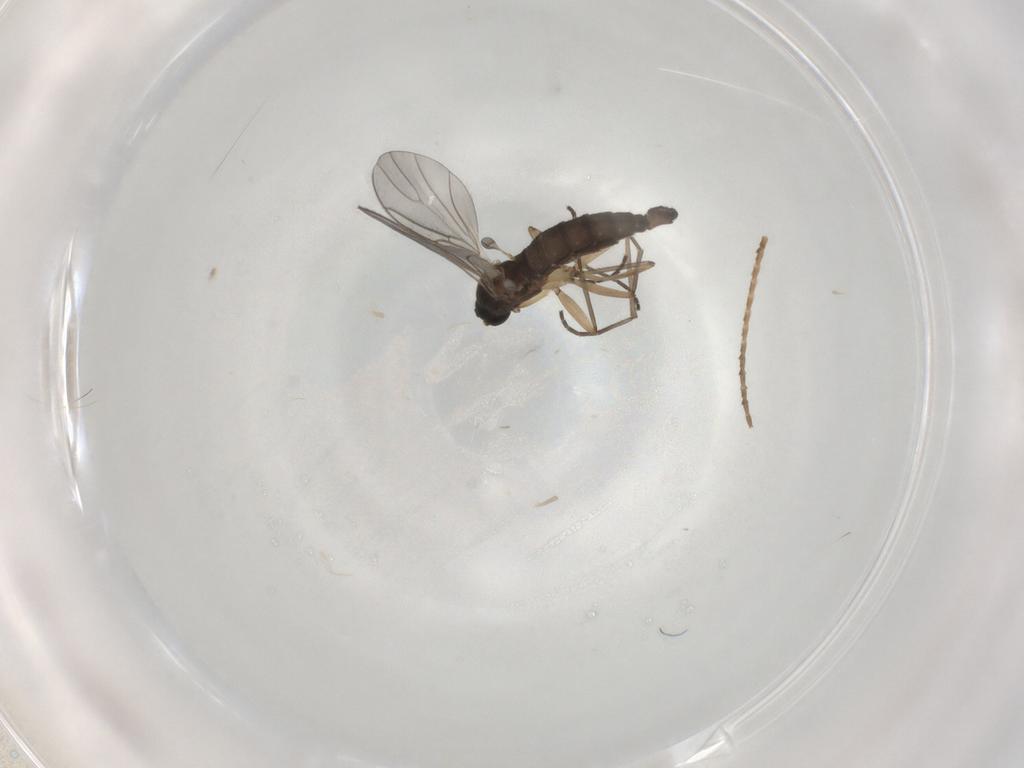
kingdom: Animalia
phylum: Arthropoda
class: Insecta
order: Diptera
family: Sciaridae
